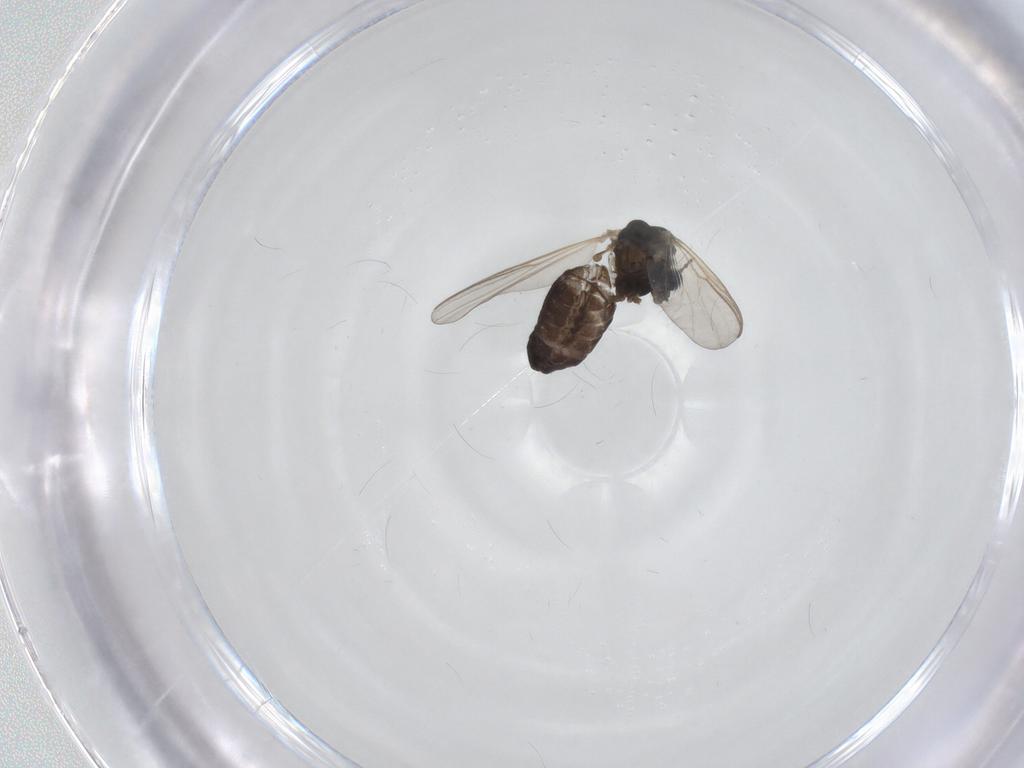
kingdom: Animalia
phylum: Arthropoda
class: Insecta
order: Diptera
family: Chironomidae
